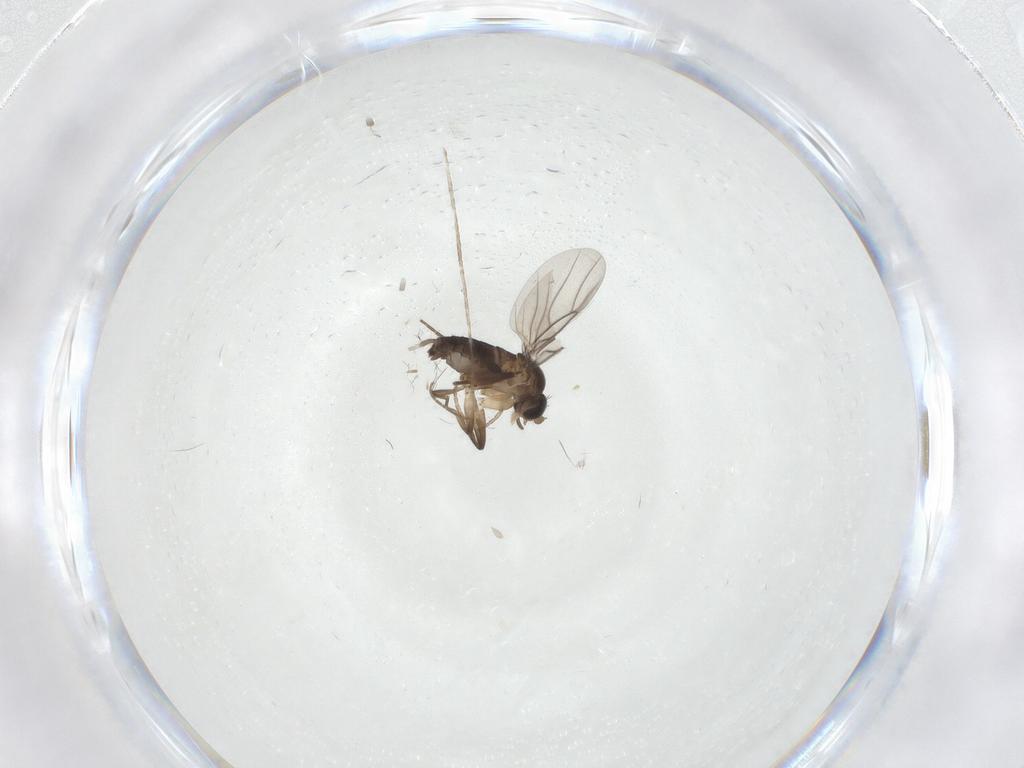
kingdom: Animalia
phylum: Arthropoda
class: Insecta
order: Diptera
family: Phoridae
